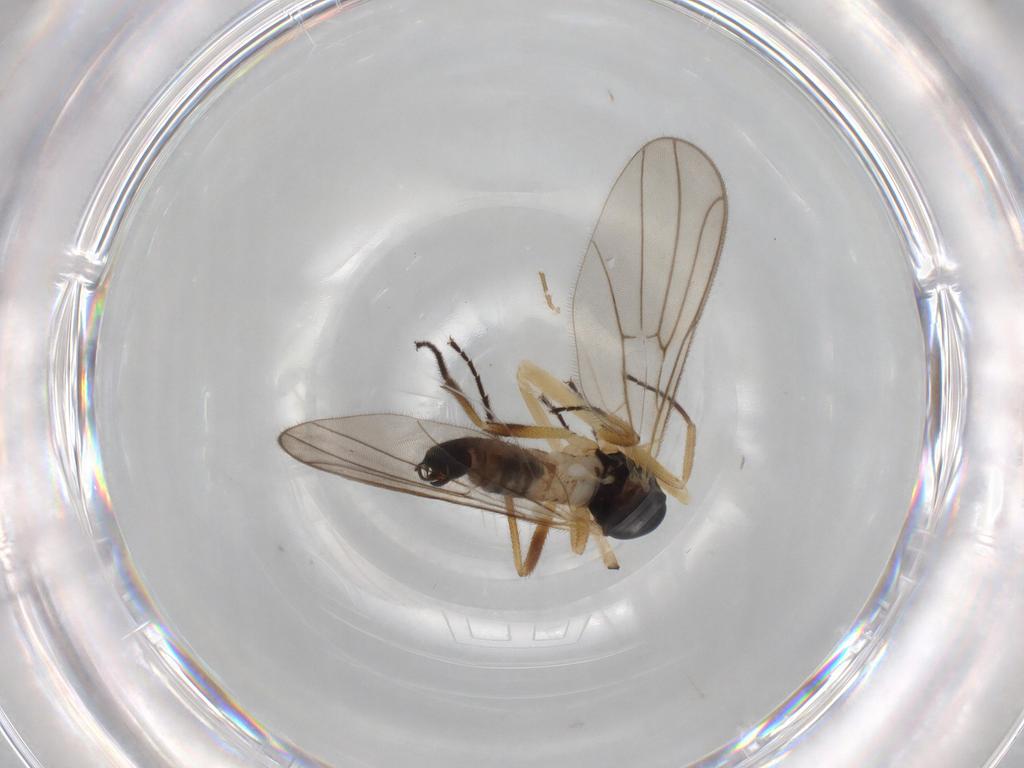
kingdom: Animalia
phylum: Arthropoda
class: Insecta
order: Diptera
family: Chironomidae
